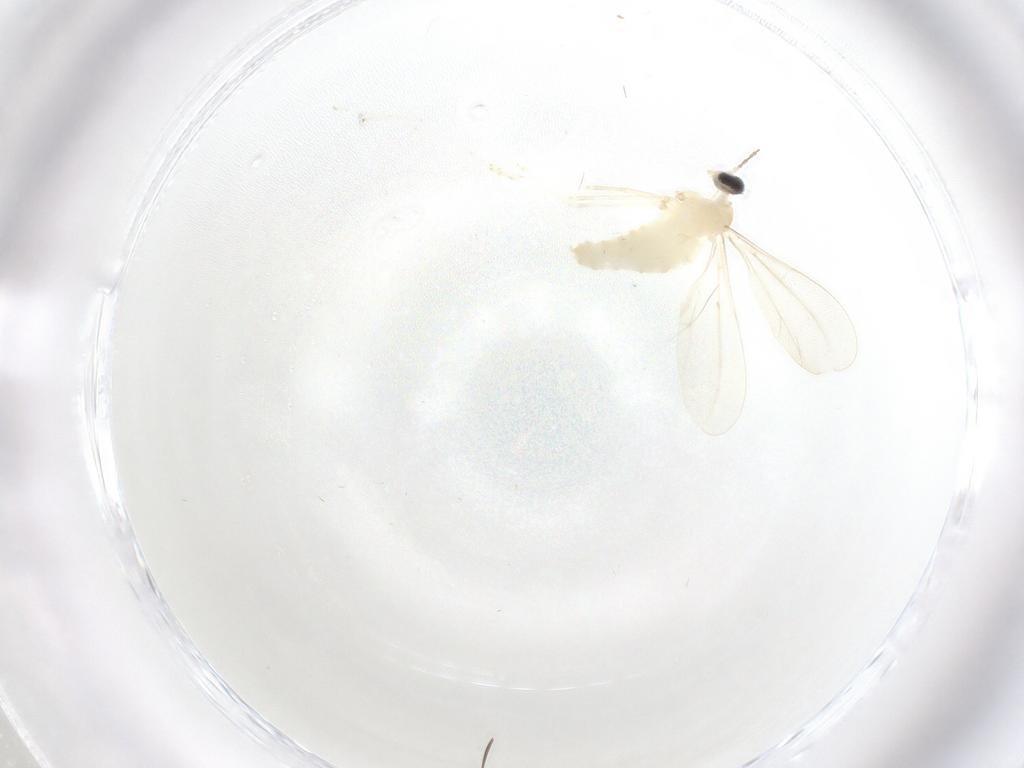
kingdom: Animalia
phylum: Arthropoda
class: Insecta
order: Diptera
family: Cecidomyiidae
